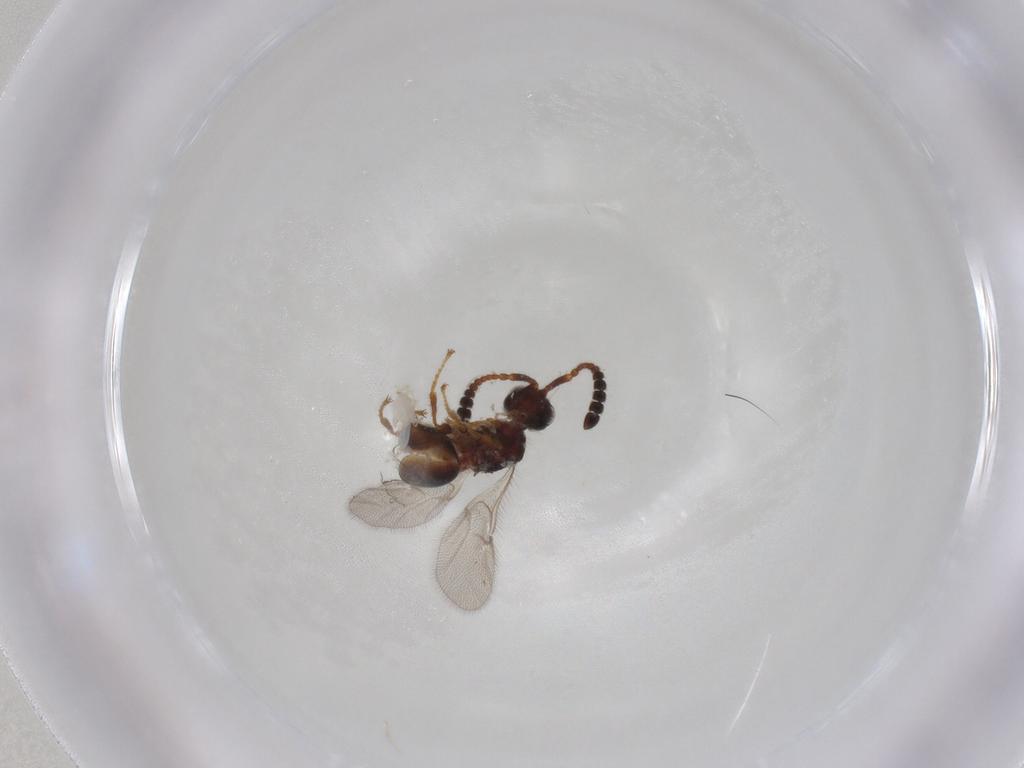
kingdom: Animalia
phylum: Arthropoda
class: Insecta
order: Hymenoptera
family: Diapriidae
